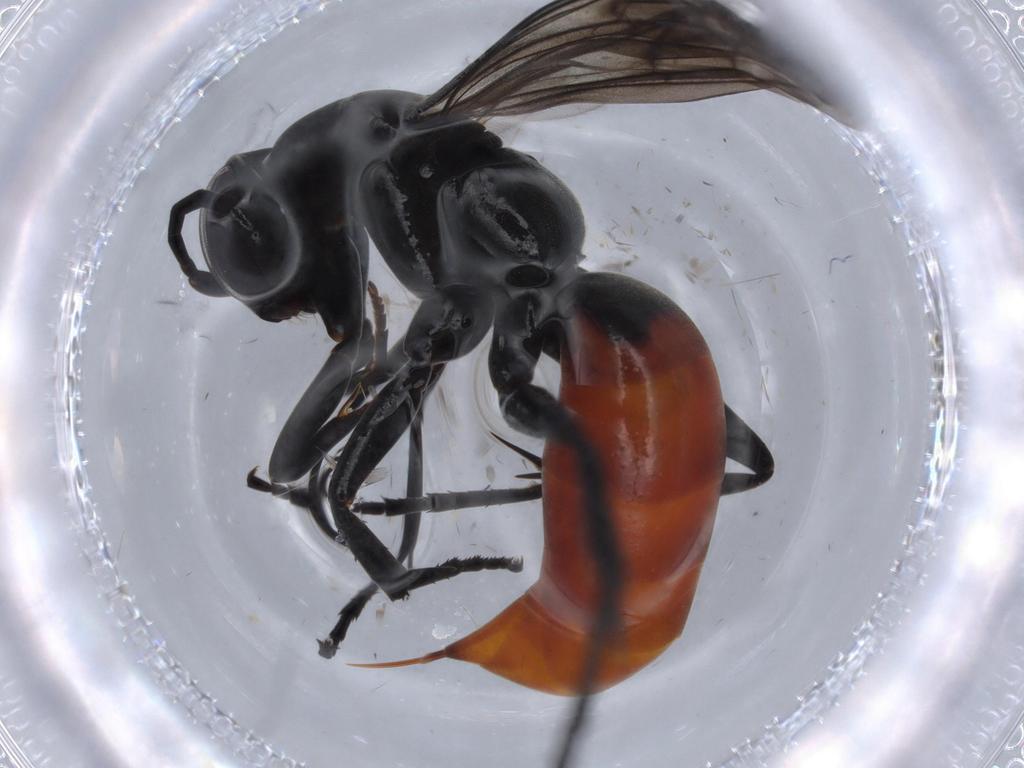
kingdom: Animalia
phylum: Arthropoda
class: Insecta
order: Hymenoptera
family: Pompilidae
